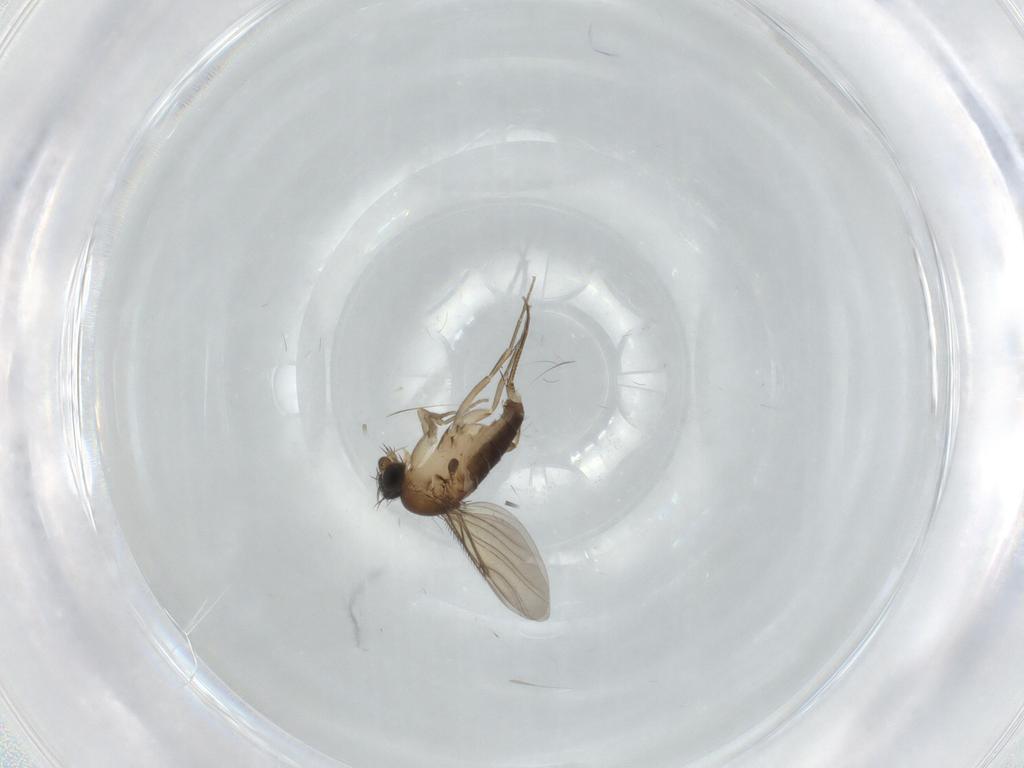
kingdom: Animalia
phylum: Arthropoda
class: Insecta
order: Diptera
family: Phoridae
